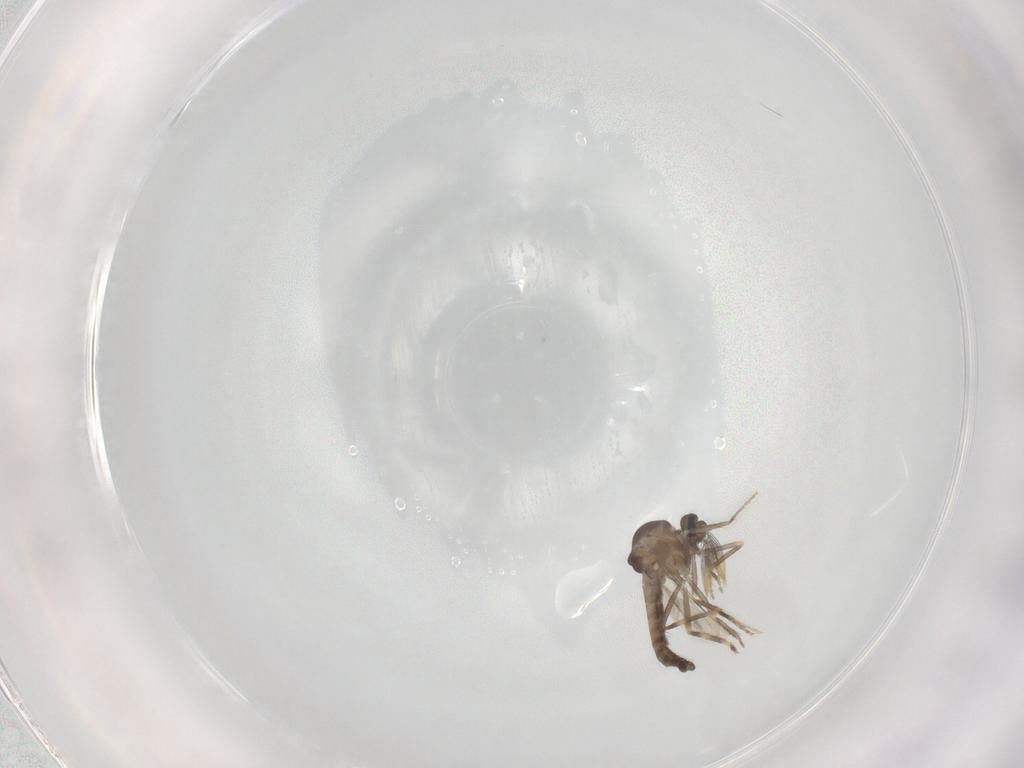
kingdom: Animalia
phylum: Arthropoda
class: Insecta
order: Diptera
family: Ceratopogonidae
